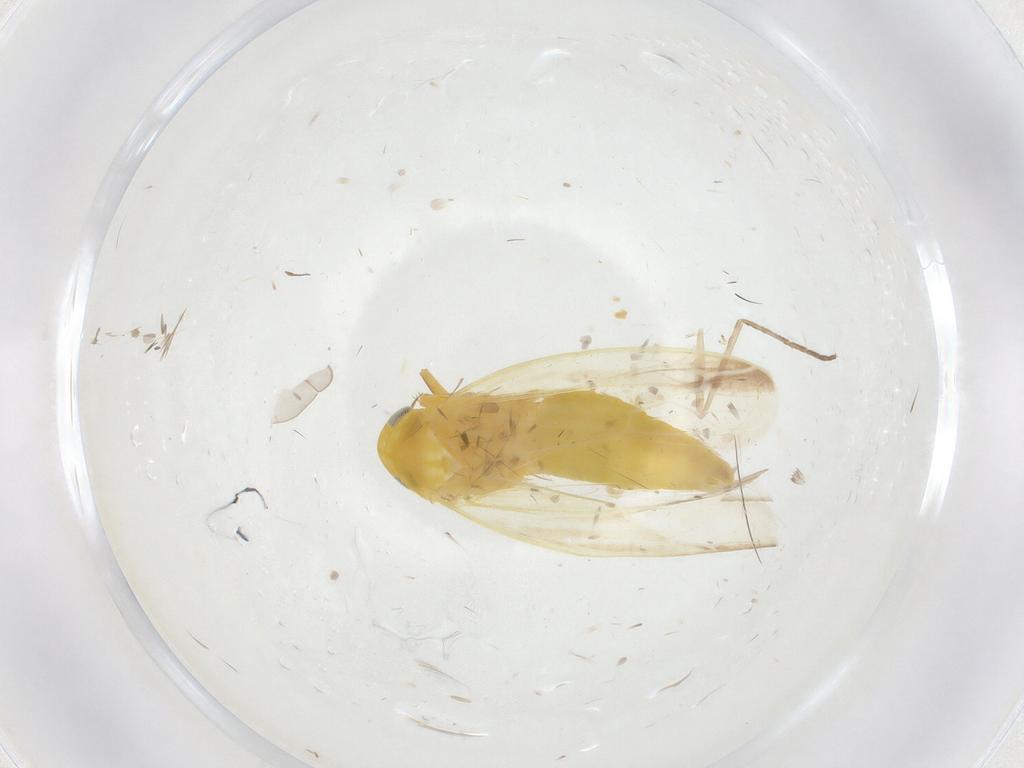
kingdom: Animalia
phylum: Arthropoda
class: Insecta
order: Hemiptera
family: Cicadellidae
